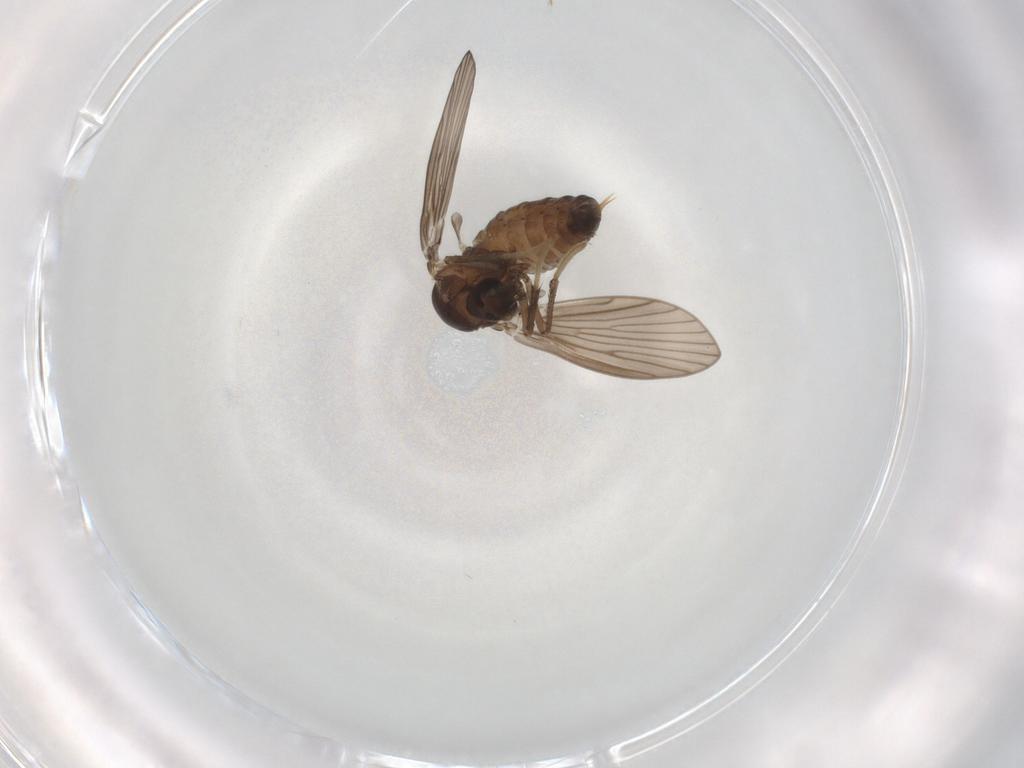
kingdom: Animalia
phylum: Arthropoda
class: Insecta
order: Diptera
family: Psychodidae
